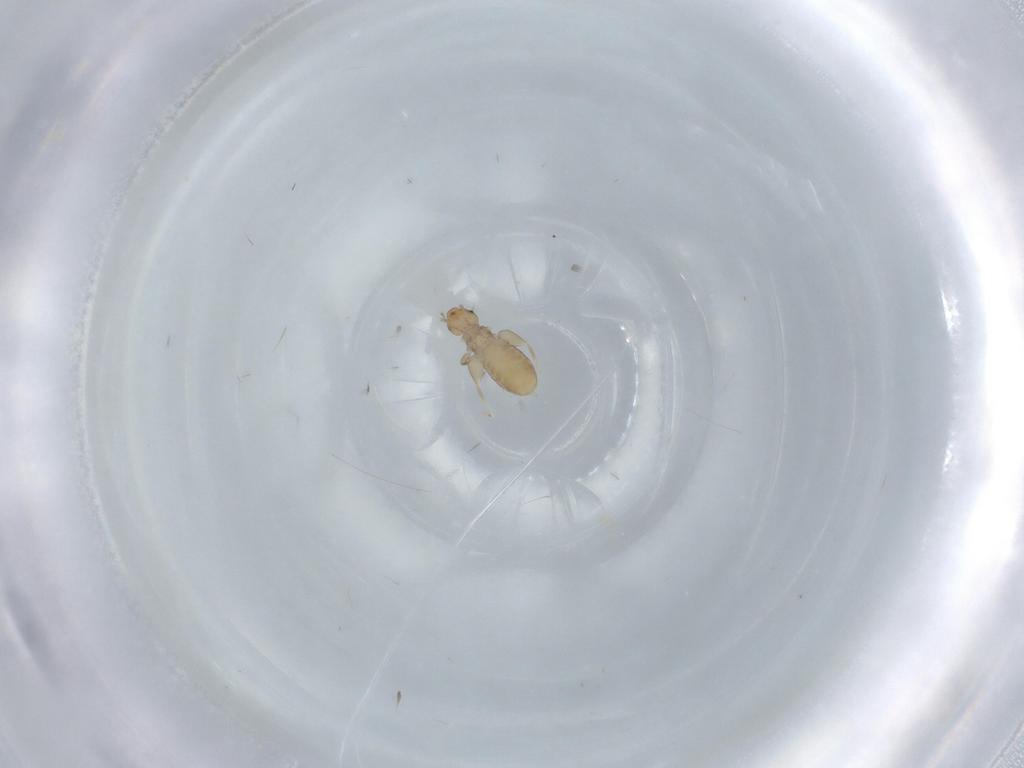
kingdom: Animalia
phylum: Arthropoda
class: Insecta
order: Psocodea
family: Liposcelididae
